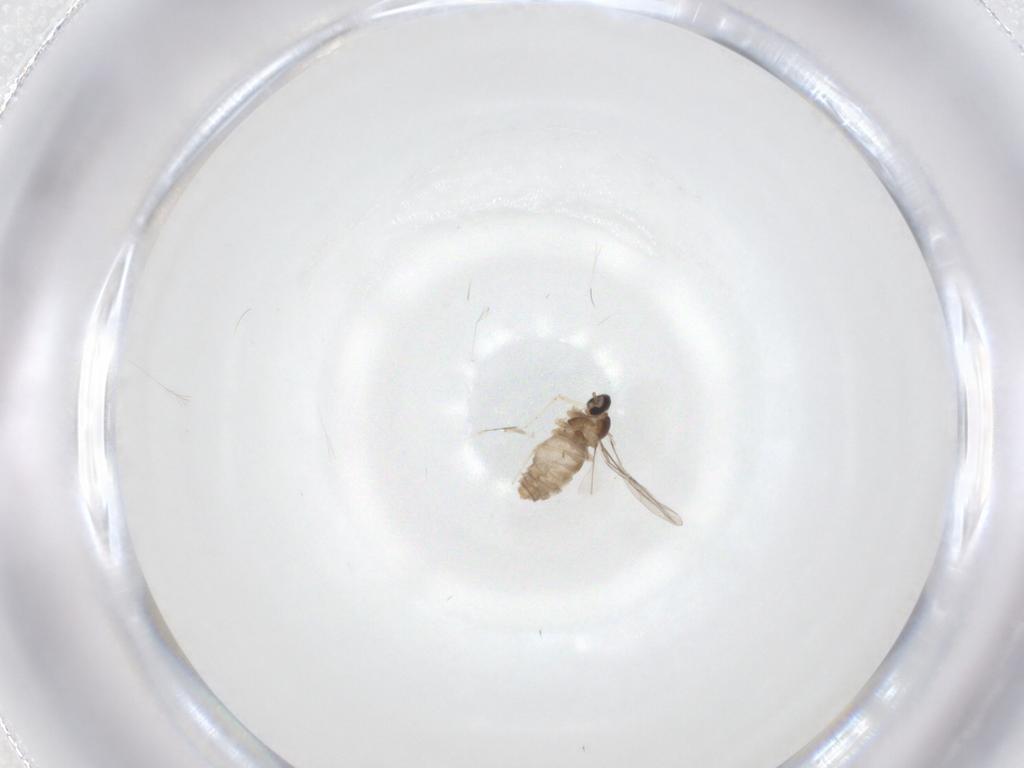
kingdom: Animalia
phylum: Arthropoda
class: Insecta
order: Diptera
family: Cecidomyiidae
